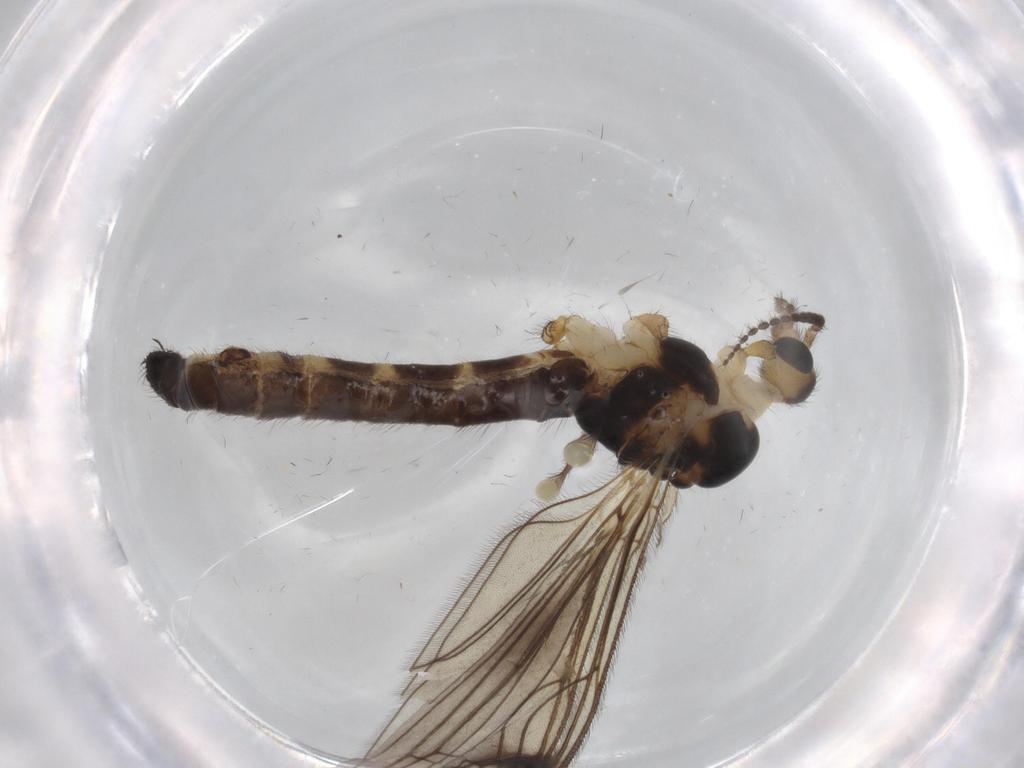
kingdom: Animalia
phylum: Arthropoda
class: Insecta
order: Diptera
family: Limoniidae
